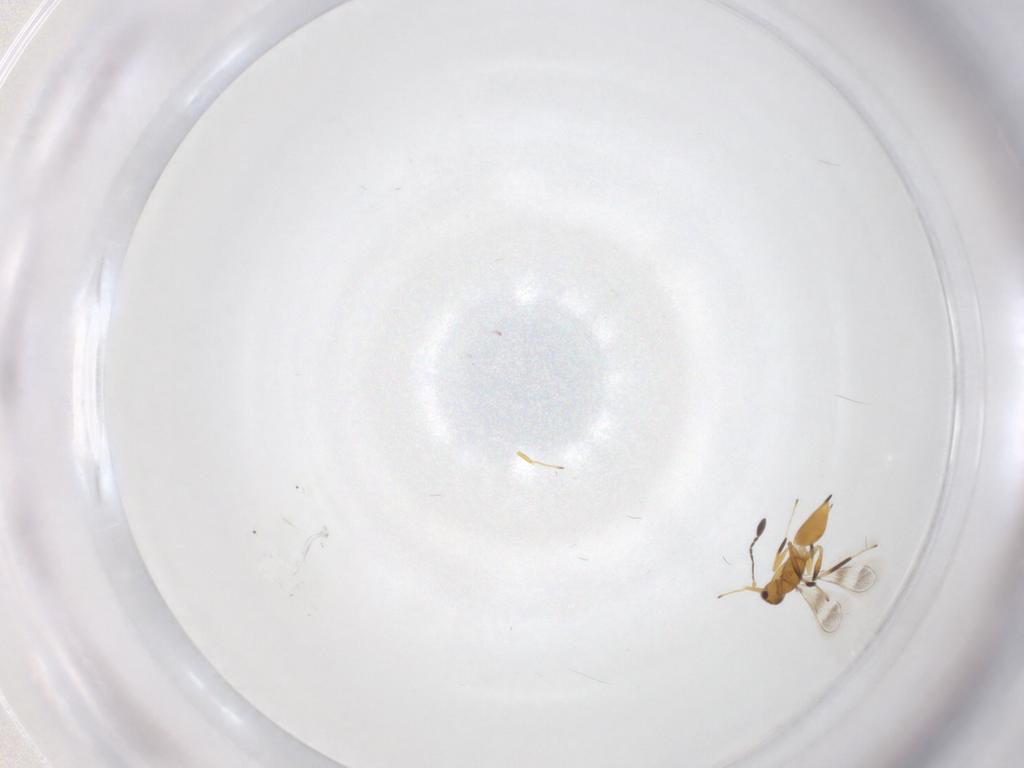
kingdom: Animalia
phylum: Arthropoda
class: Insecta
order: Hymenoptera
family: Mymaridae
